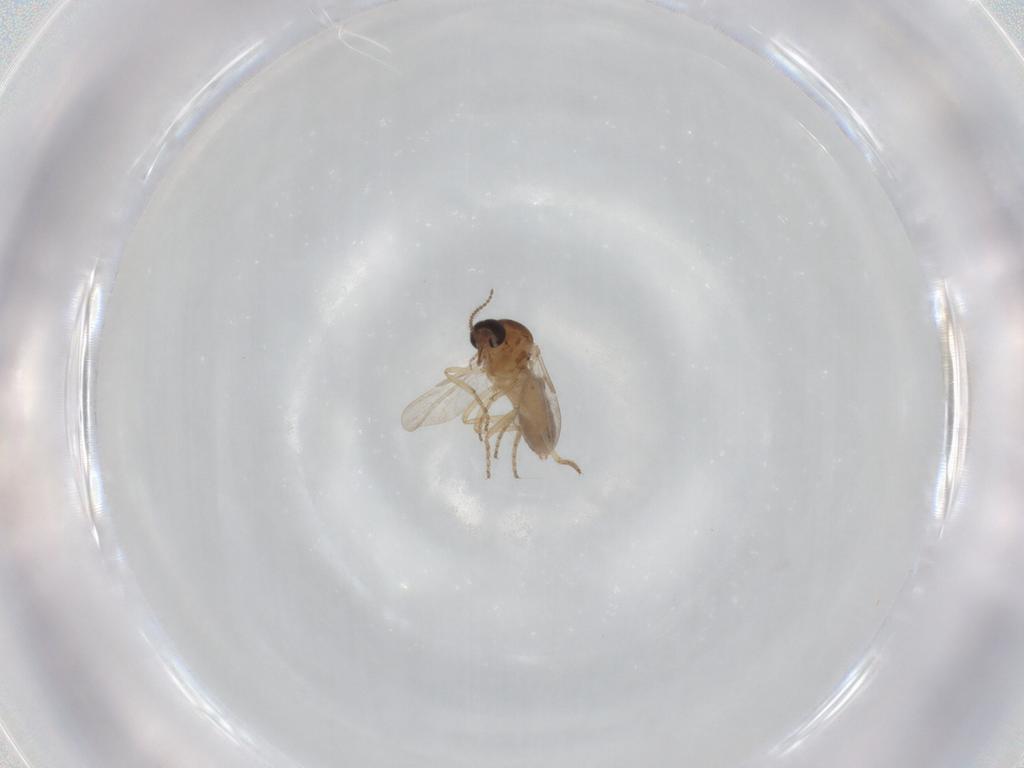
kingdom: Animalia
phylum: Arthropoda
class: Insecta
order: Diptera
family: Ceratopogonidae
